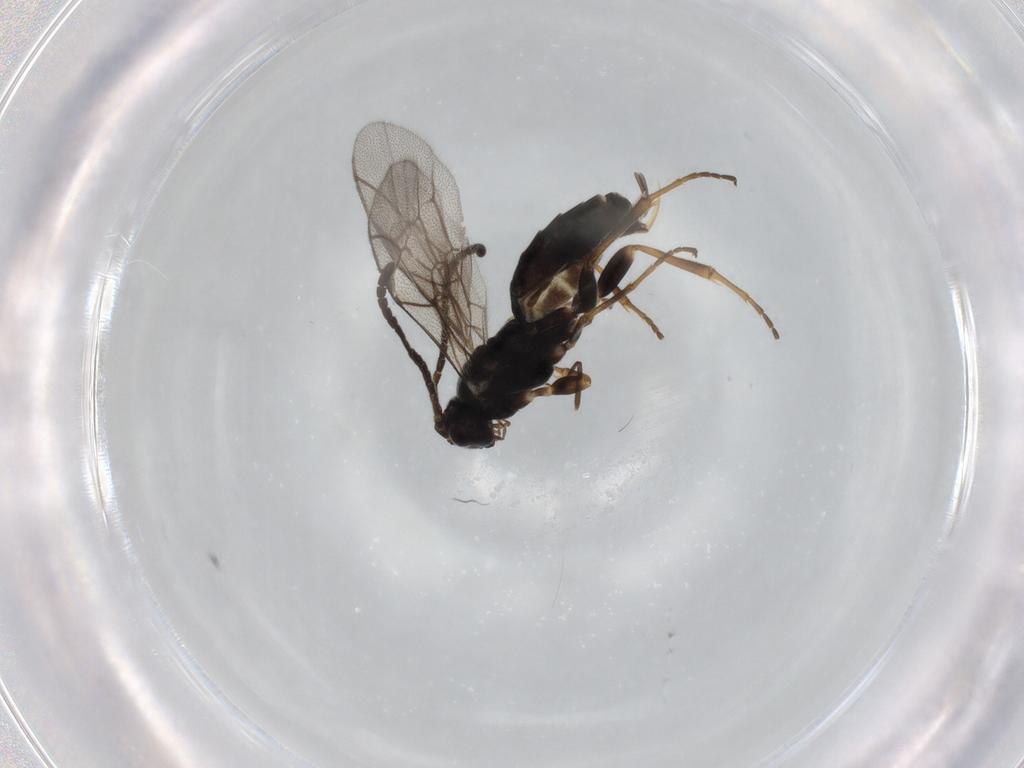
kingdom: Animalia
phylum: Arthropoda
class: Insecta
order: Hymenoptera
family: Ichneumonidae
